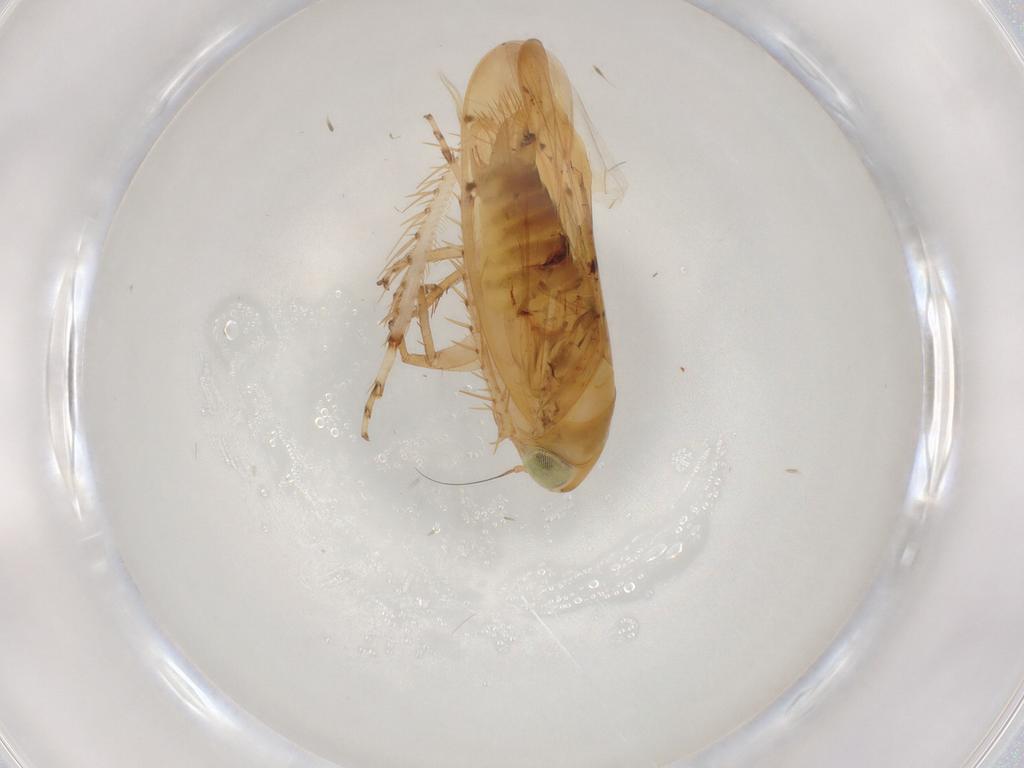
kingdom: Animalia
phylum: Arthropoda
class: Insecta
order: Hemiptera
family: Cicadellidae
